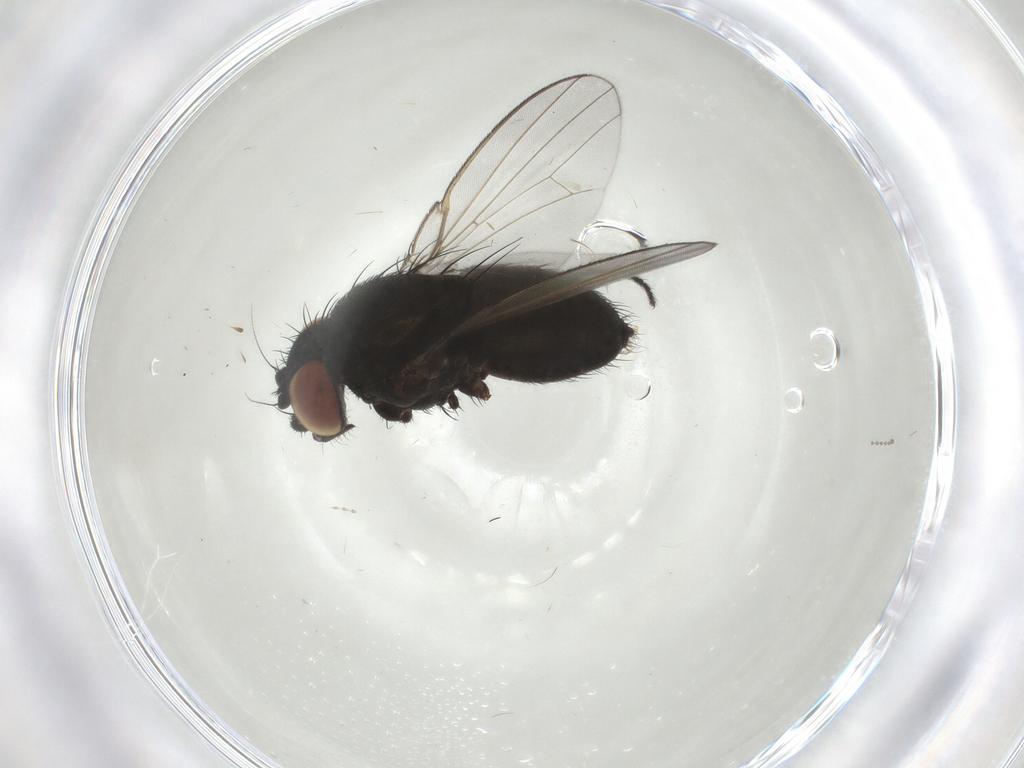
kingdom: Animalia
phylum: Arthropoda
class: Insecta
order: Diptera
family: Milichiidae
